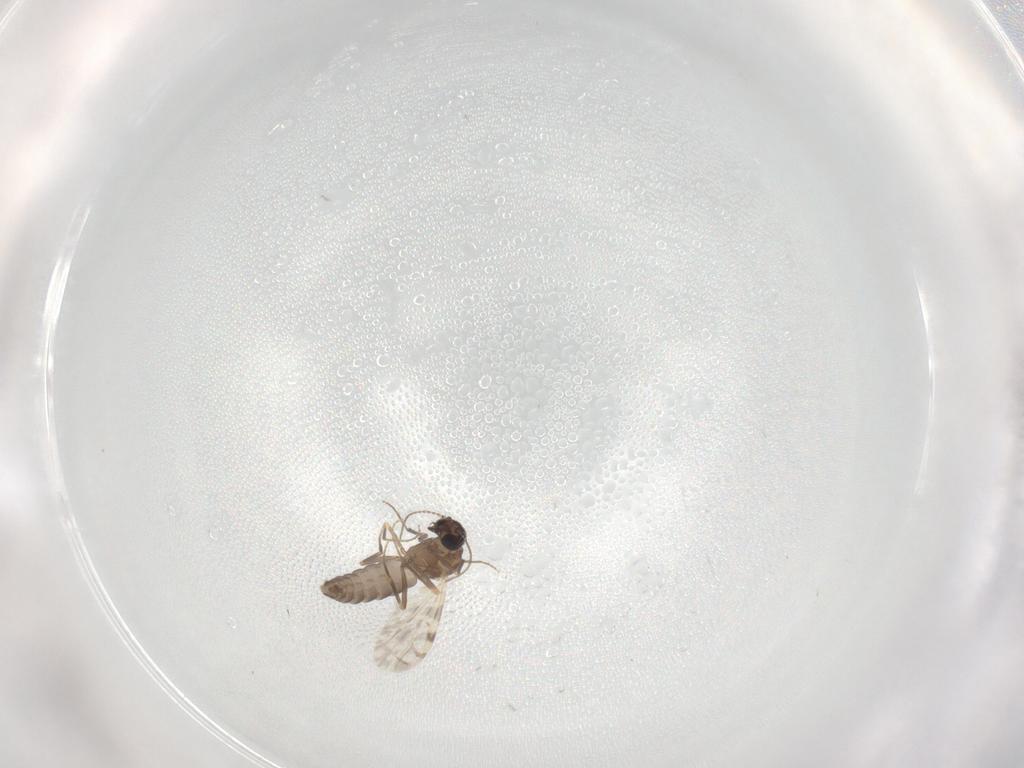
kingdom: Animalia
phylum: Arthropoda
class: Insecta
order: Diptera
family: Ceratopogonidae
